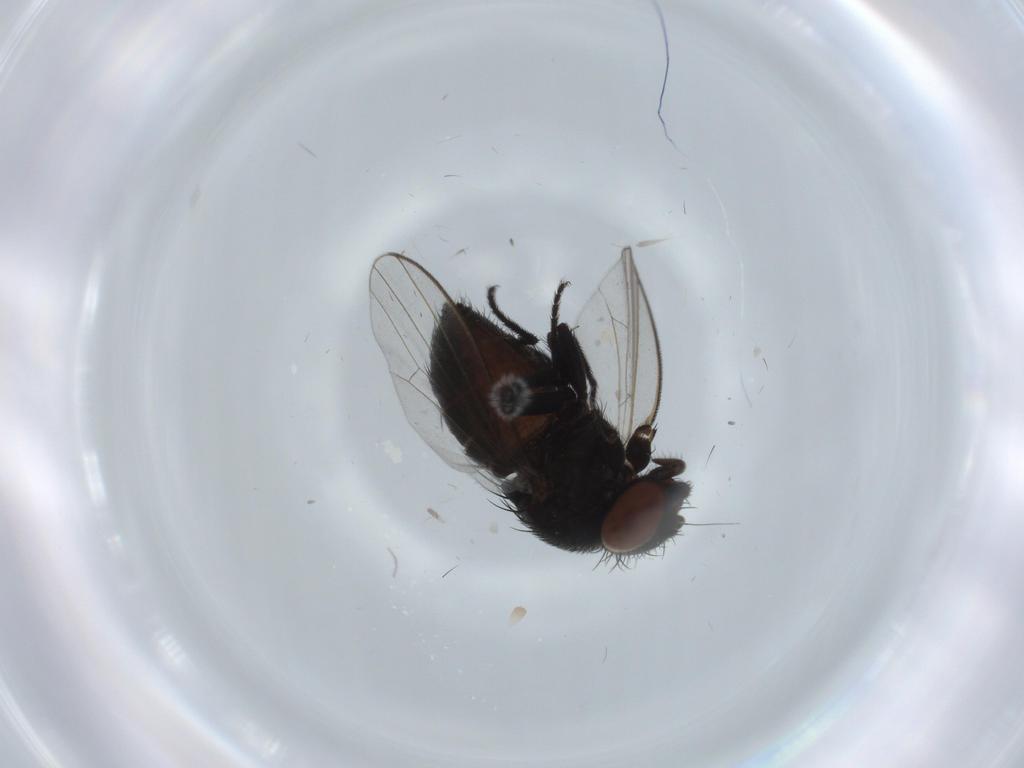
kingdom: Animalia
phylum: Arthropoda
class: Insecta
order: Diptera
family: Milichiidae
